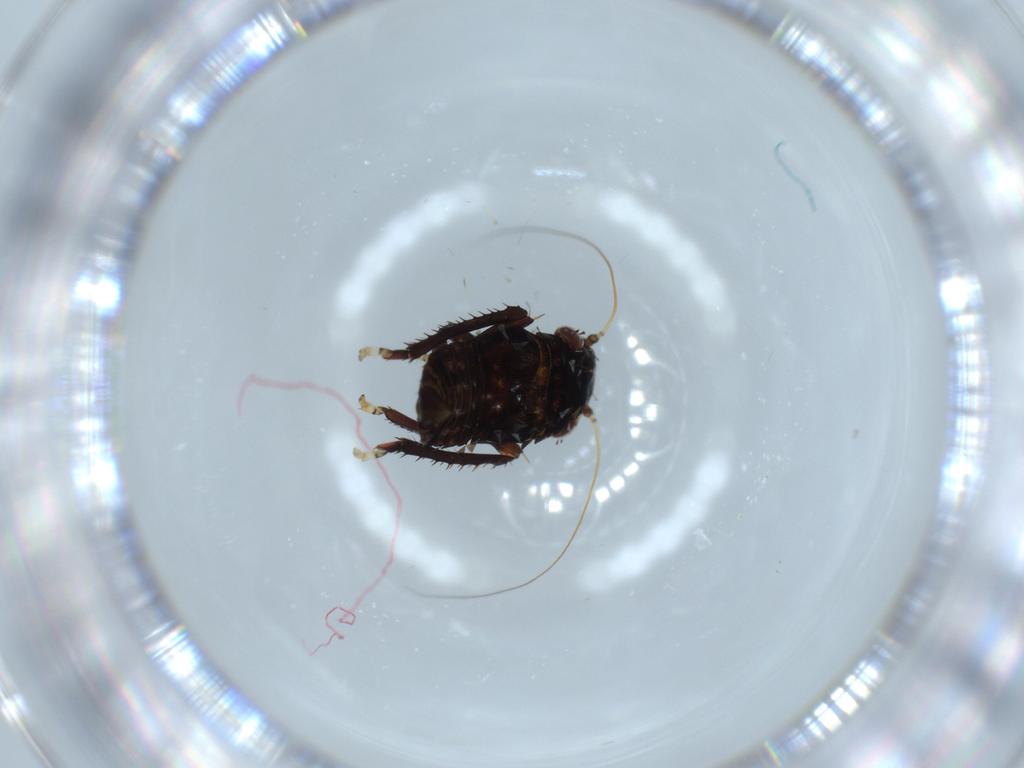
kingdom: Animalia
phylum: Arthropoda
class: Insecta
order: Hemiptera
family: Cicadellidae
